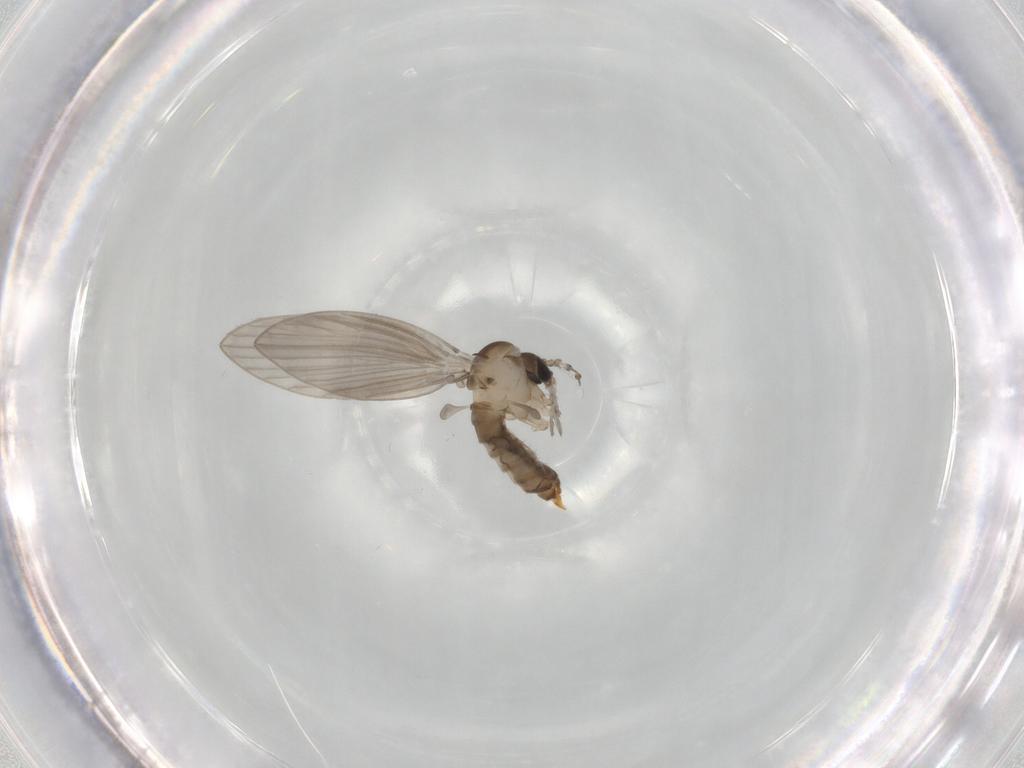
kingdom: Animalia
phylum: Arthropoda
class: Insecta
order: Diptera
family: Psychodidae
